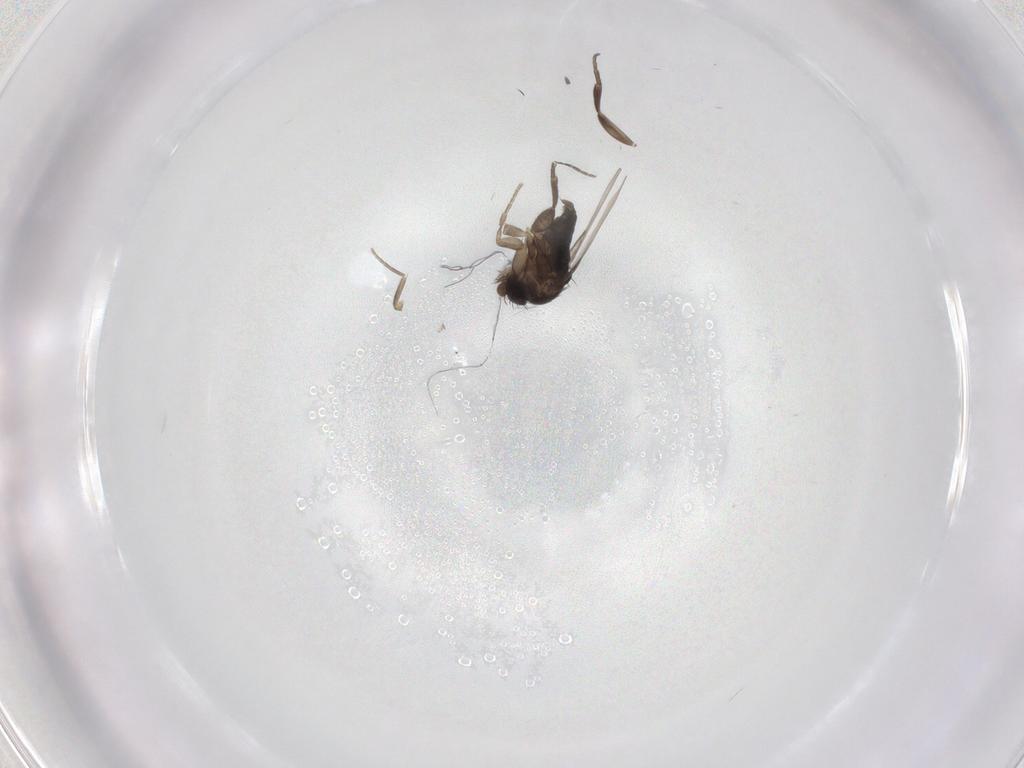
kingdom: Animalia
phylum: Arthropoda
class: Insecta
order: Diptera
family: Phoridae
